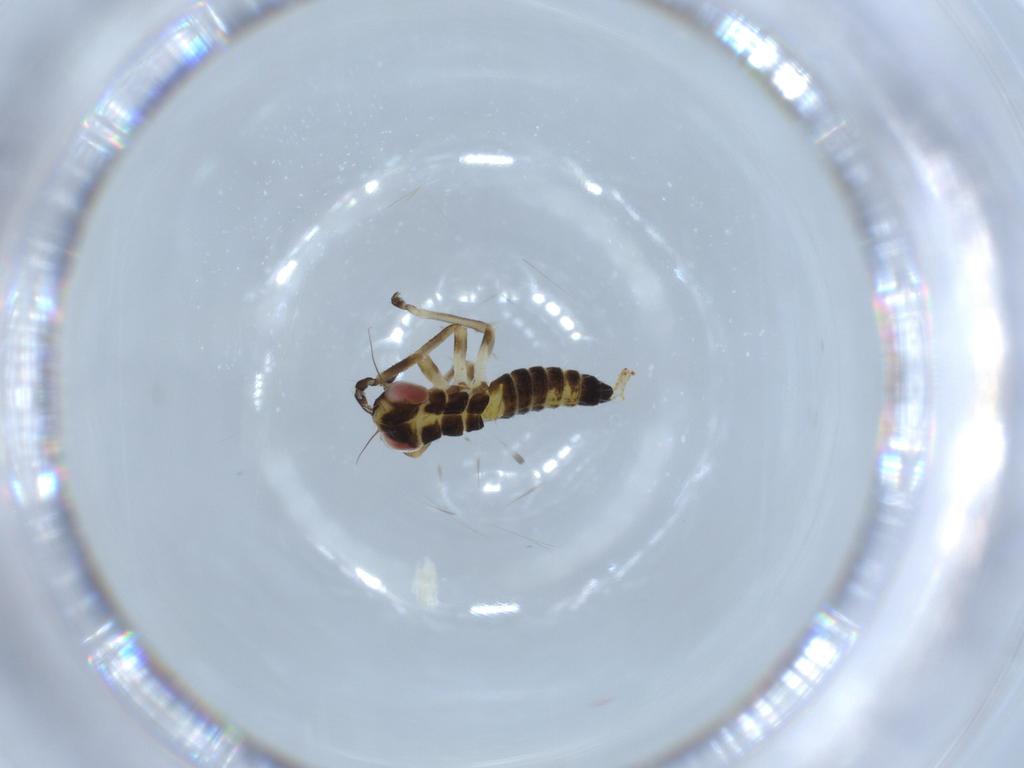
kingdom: Animalia
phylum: Arthropoda
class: Insecta
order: Hemiptera
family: Cicadellidae
